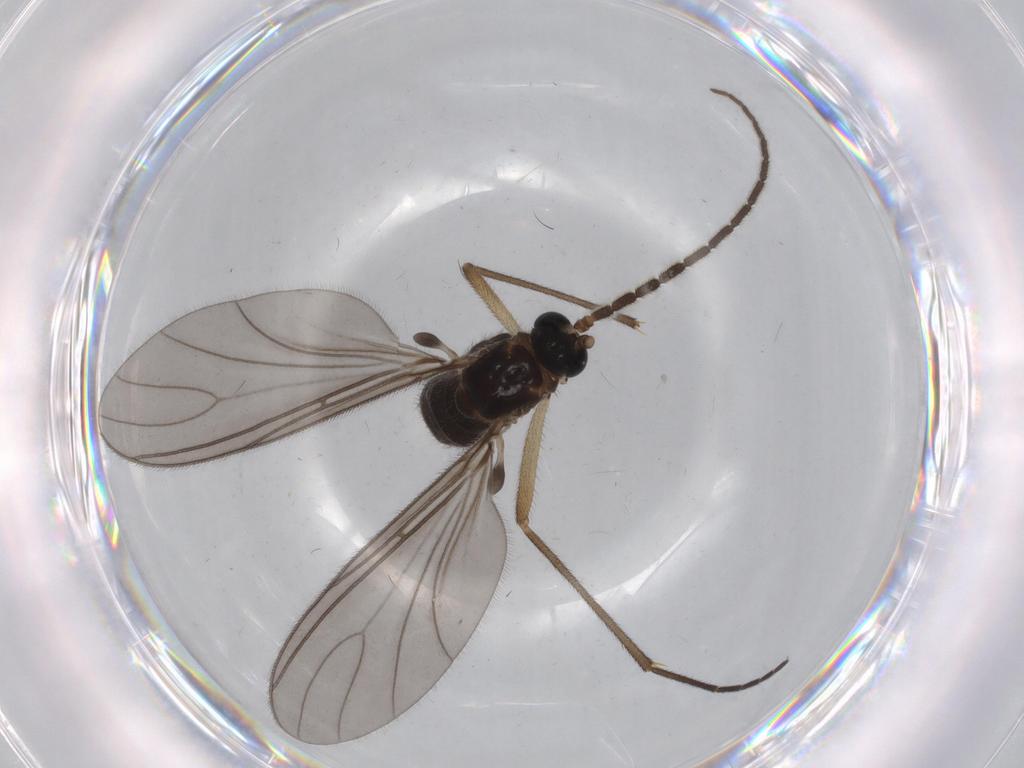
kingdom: Animalia
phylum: Arthropoda
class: Insecta
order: Diptera
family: Sciaridae
